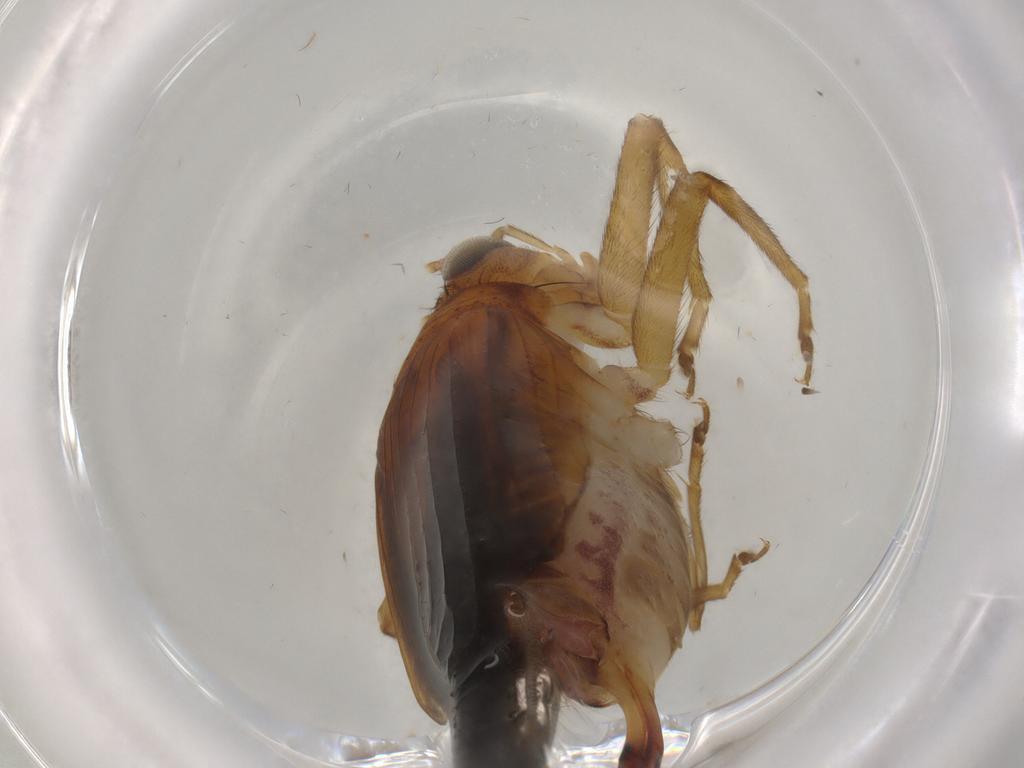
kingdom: Animalia
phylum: Arthropoda
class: Insecta
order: Orthoptera
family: Trigonidiidae
